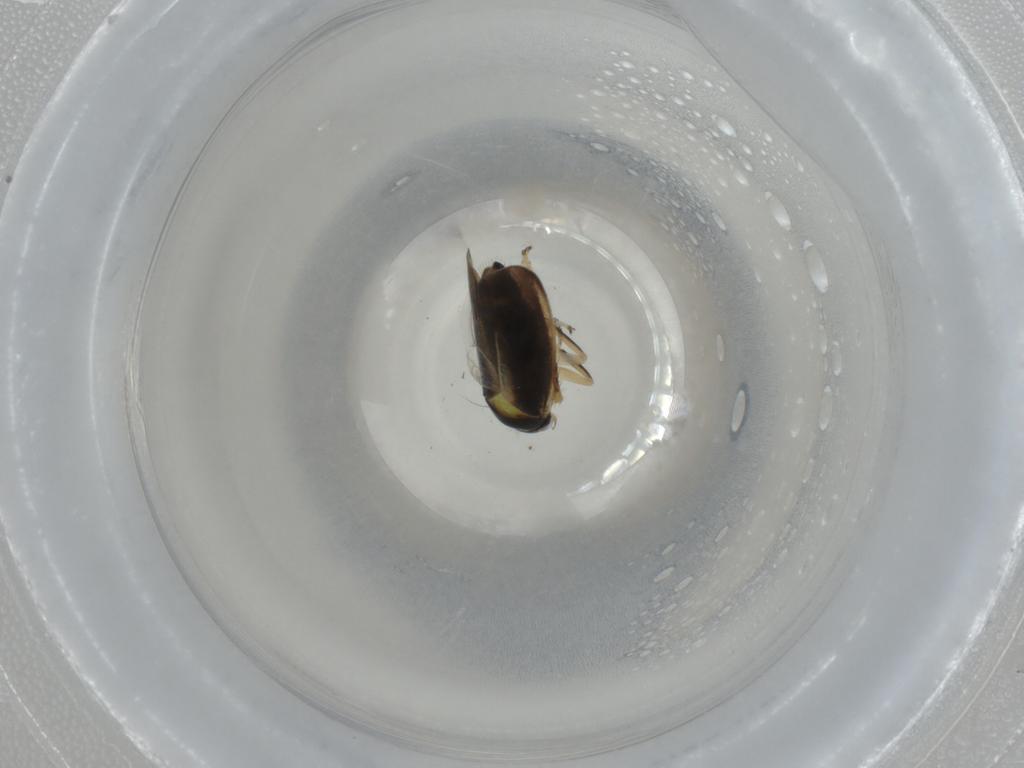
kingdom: Animalia
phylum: Arthropoda
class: Insecta
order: Hemiptera
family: Cicadellidae
